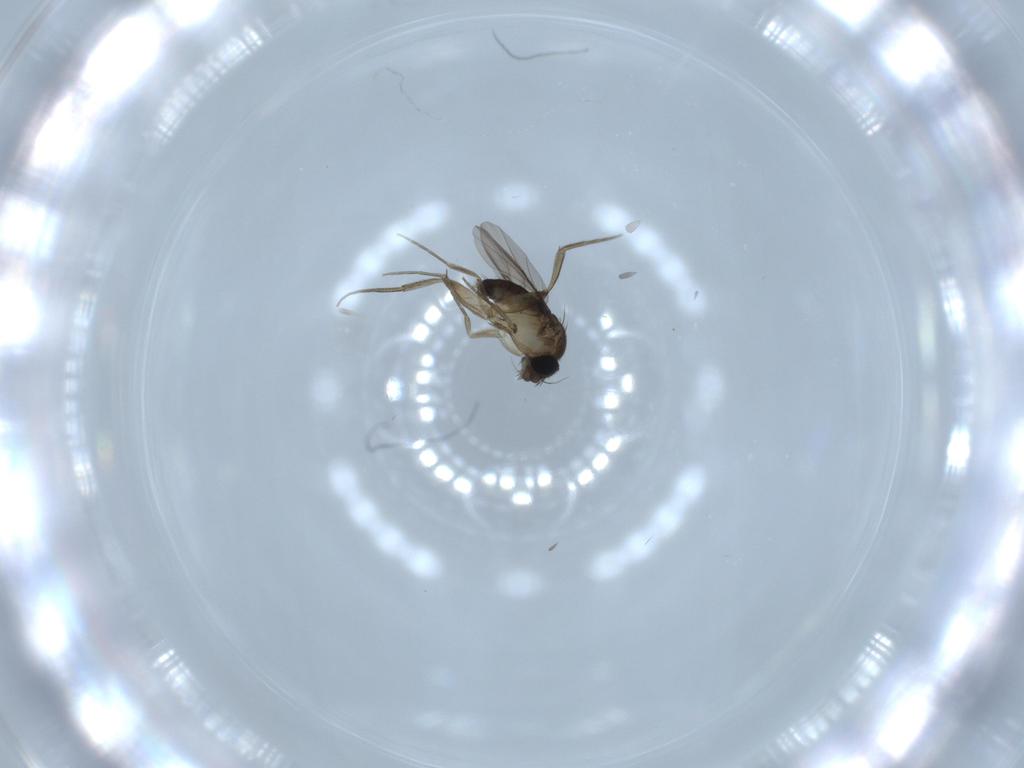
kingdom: Animalia
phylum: Arthropoda
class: Insecta
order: Diptera
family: Phoridae
